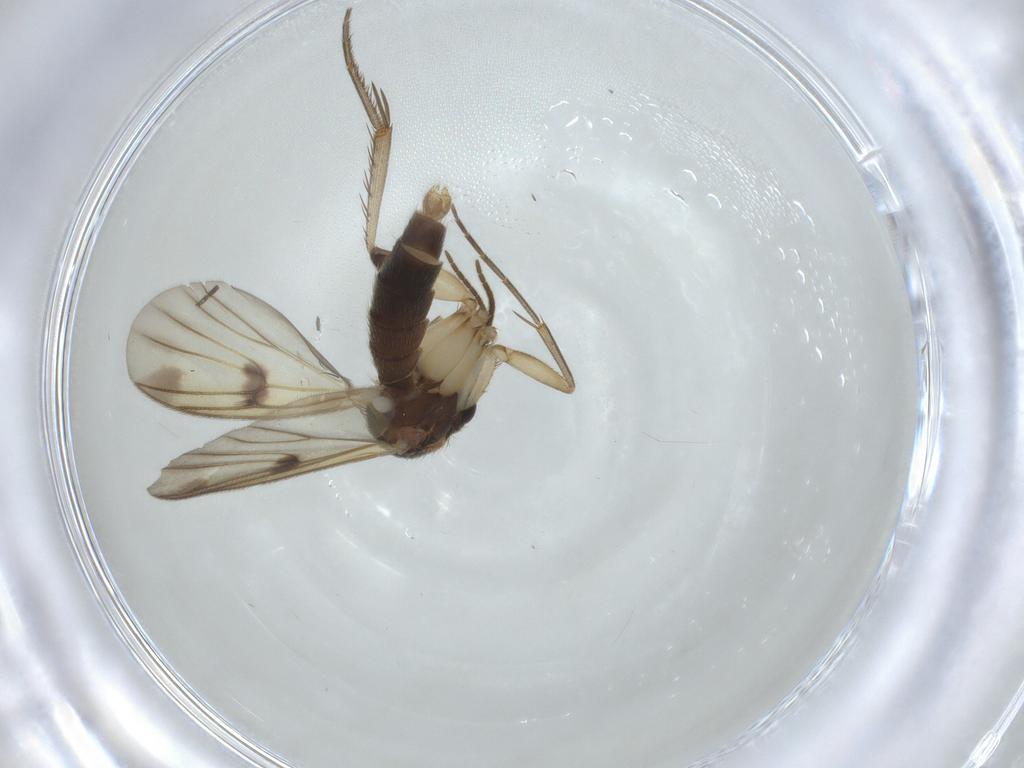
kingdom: Animalia
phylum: Arthropoda
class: Insecta
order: Diptera
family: Mycetophilidae
